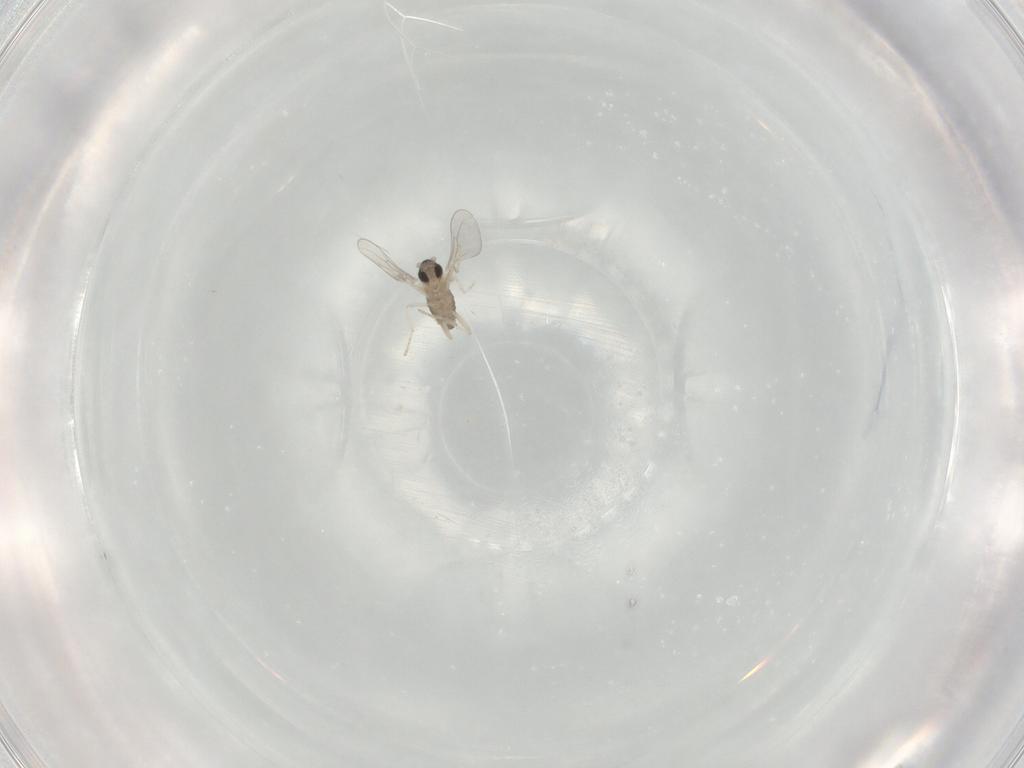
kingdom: Animalia
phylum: Arthropoda
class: Insecta
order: Diptera
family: Cecidomyiidae
